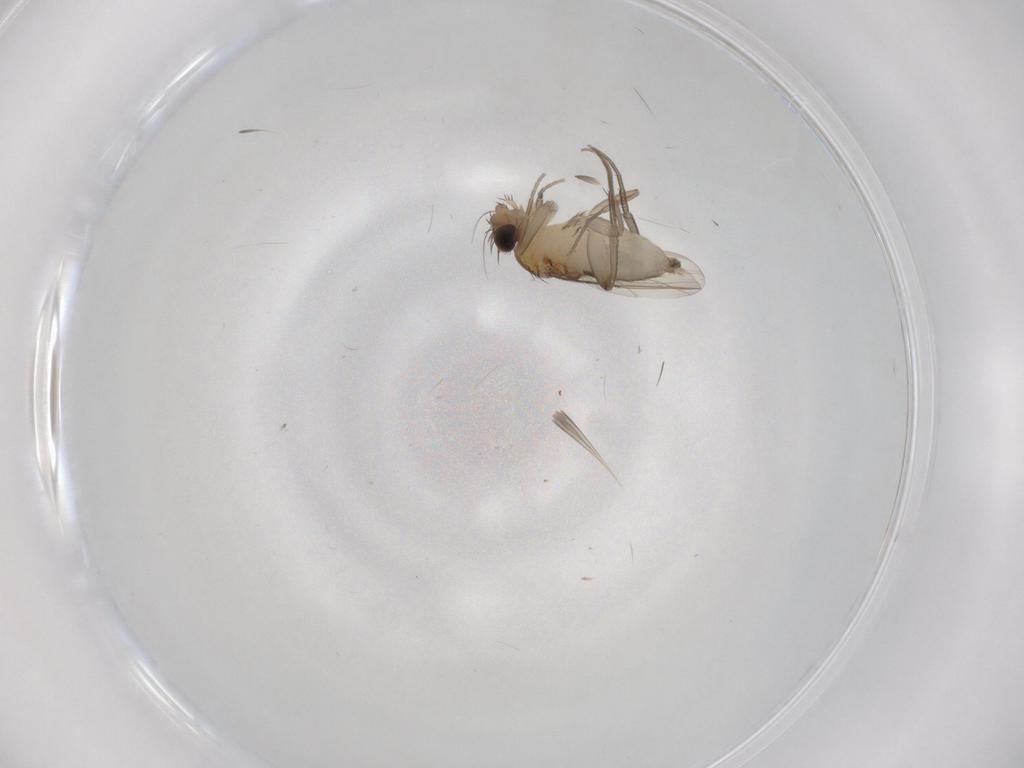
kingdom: Animalia
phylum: Arthropoda
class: Insecta
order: Diptera
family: Phoridae
